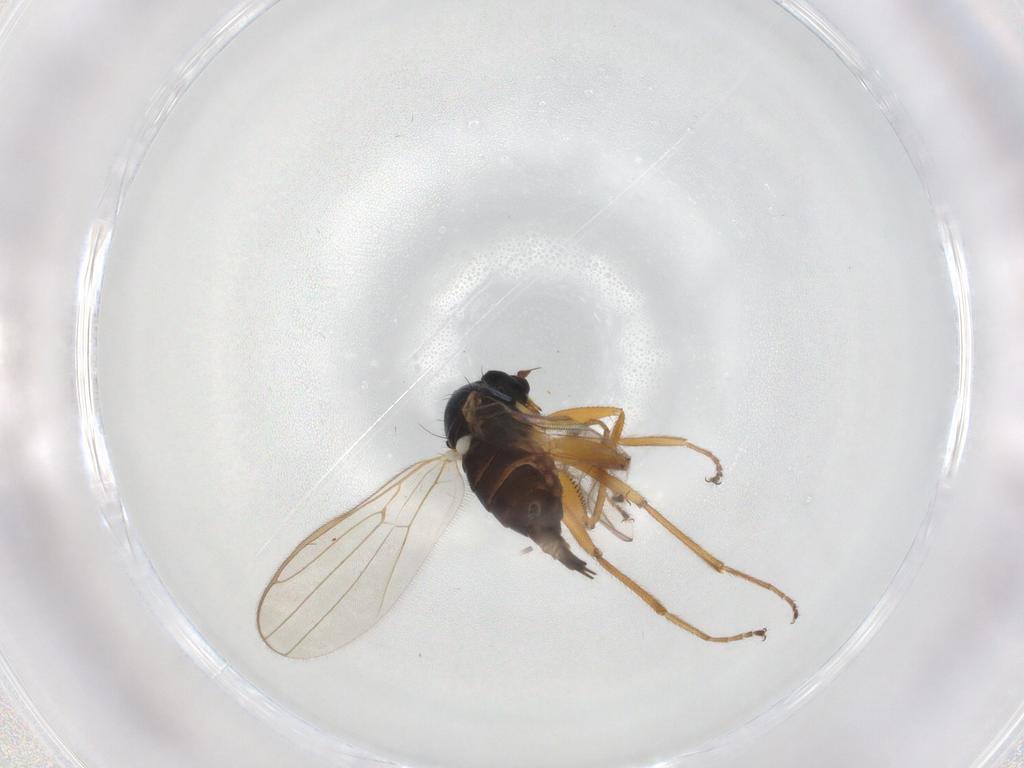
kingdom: Animalia
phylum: Arthropoda
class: Insecta
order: Diptera
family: Hybotidae
